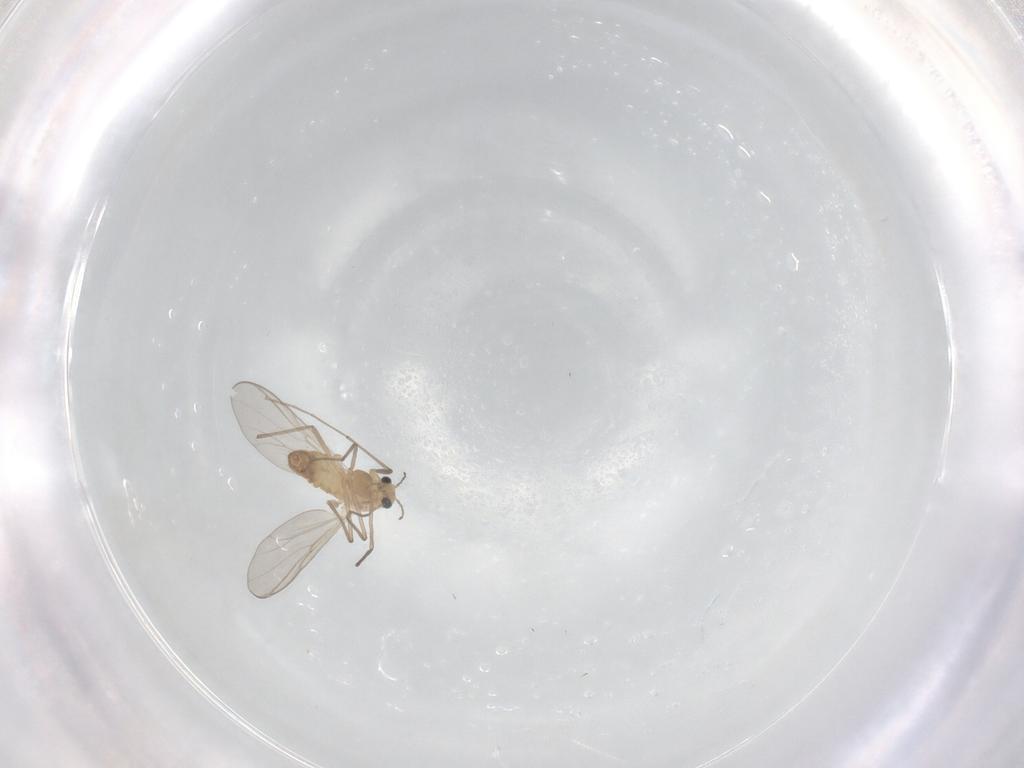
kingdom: Animalia
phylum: Arthropoda
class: Insecta
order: Diptera
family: Chironomidae
